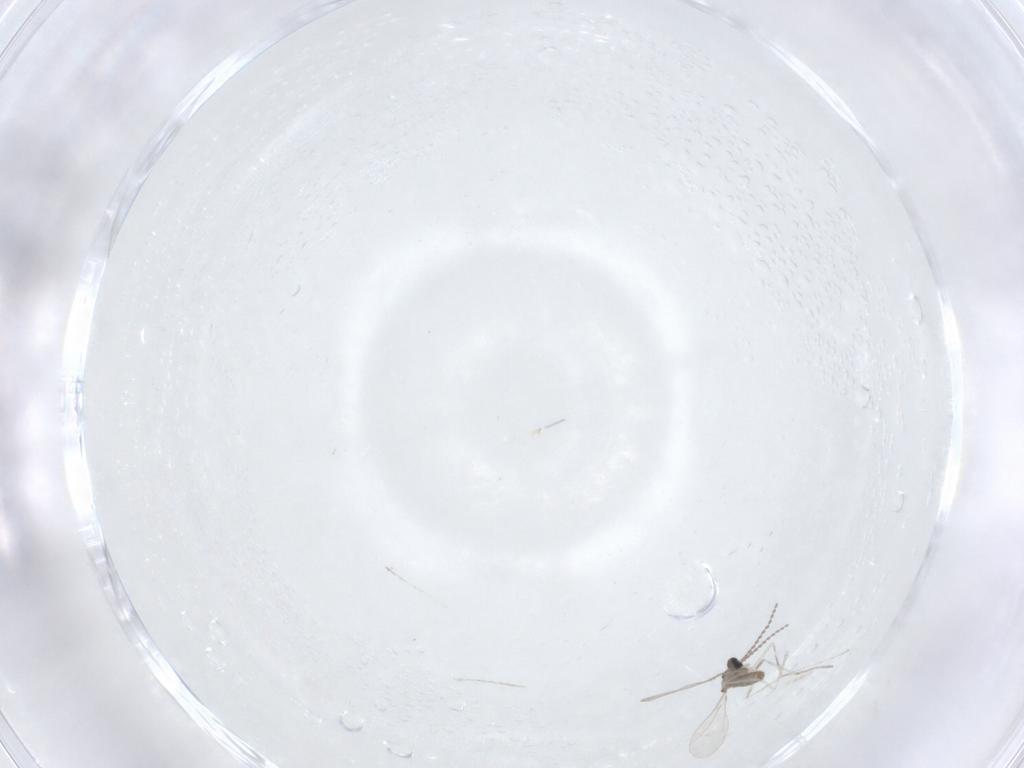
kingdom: Animalia
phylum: Arthropoda
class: Insecta
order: Diptera
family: Cecidomyiidae
